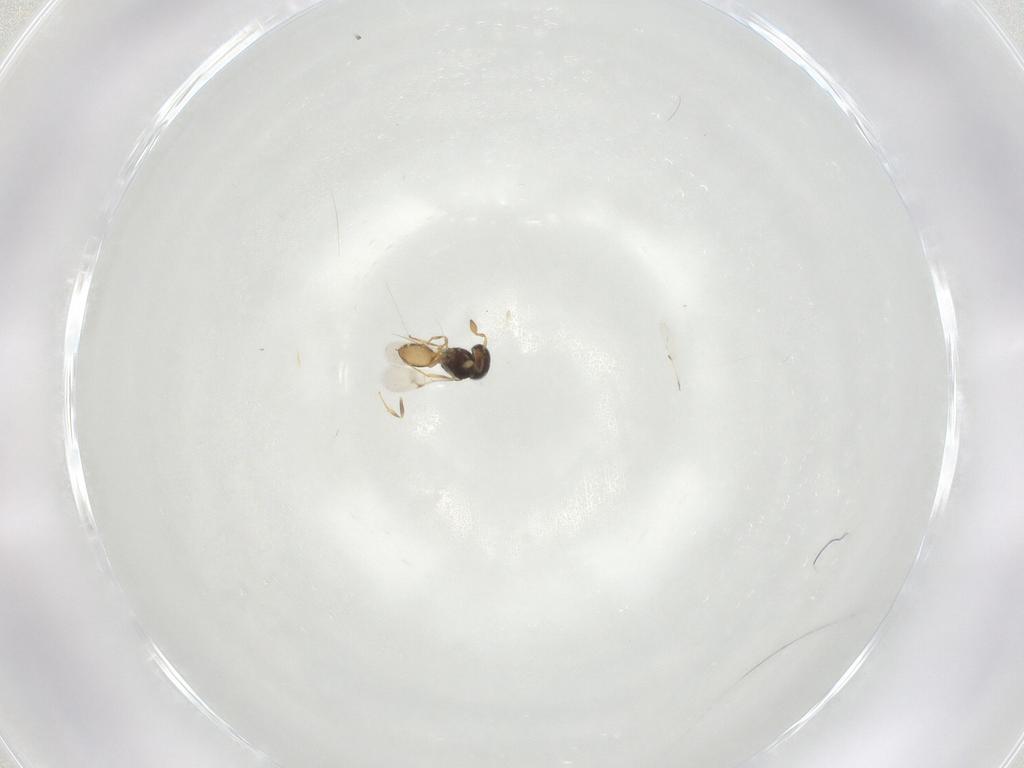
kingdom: Animalia
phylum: Arthropoda
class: Insecta
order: Hymenoptera
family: Scelionidae
